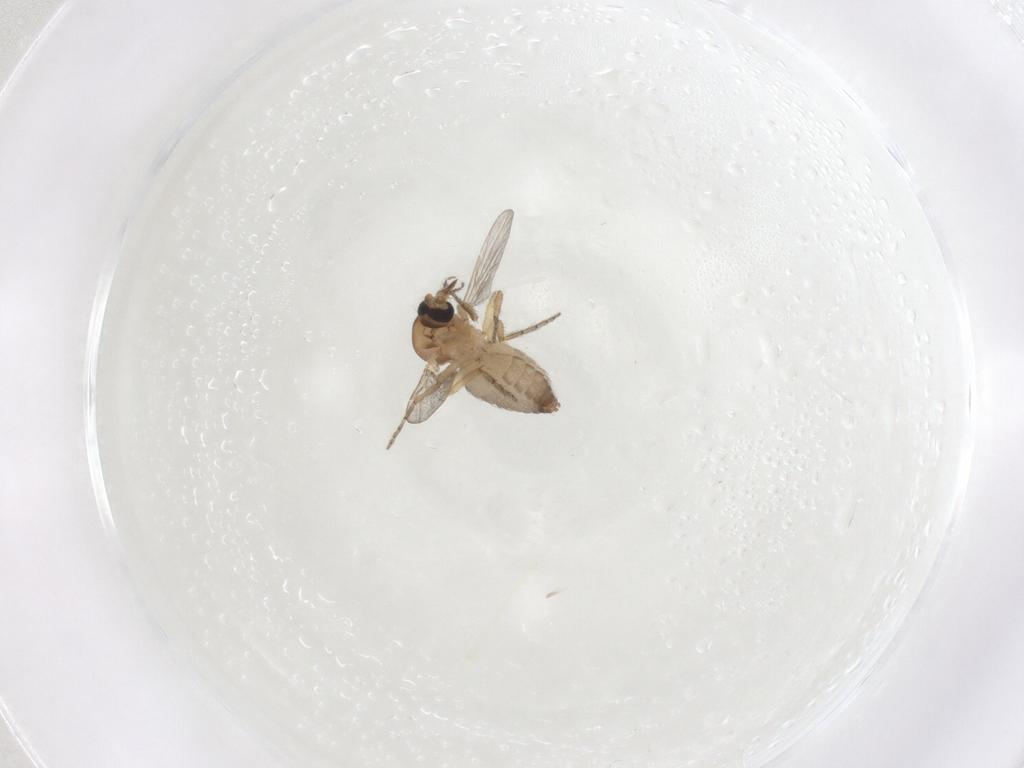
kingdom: Animalia
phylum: Arthropoda
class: Insecta
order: Diptera
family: Ceratopogonidae
